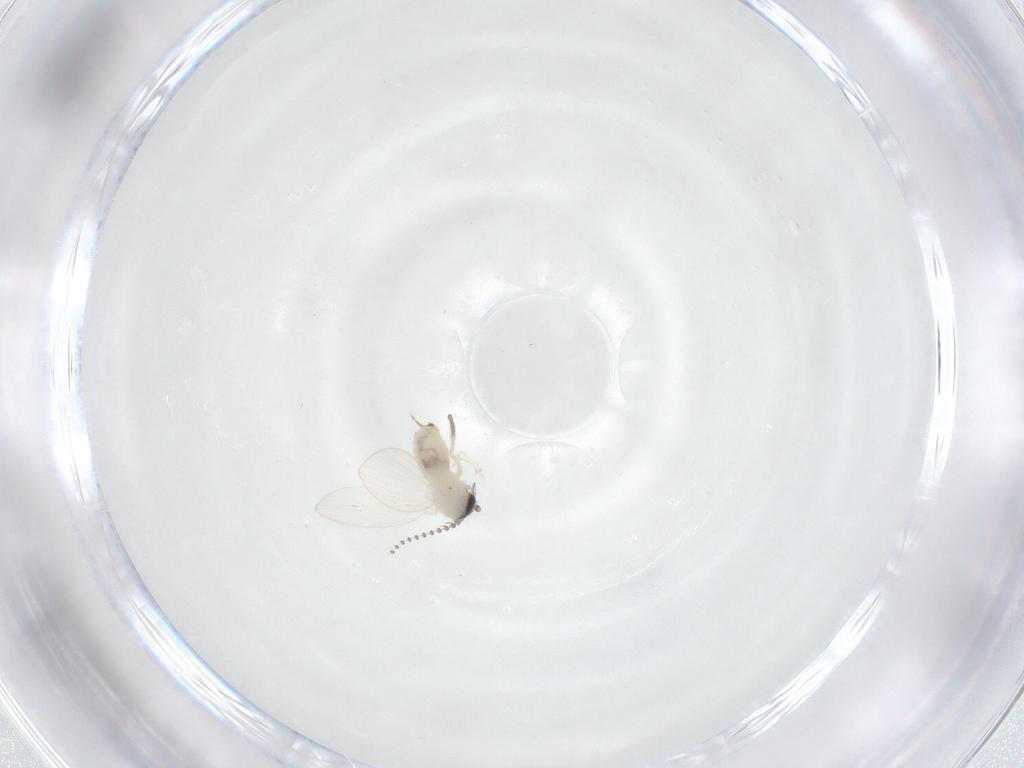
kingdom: Animalia
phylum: Arthropoda
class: Insecta
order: Diptera
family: Psychodidae
